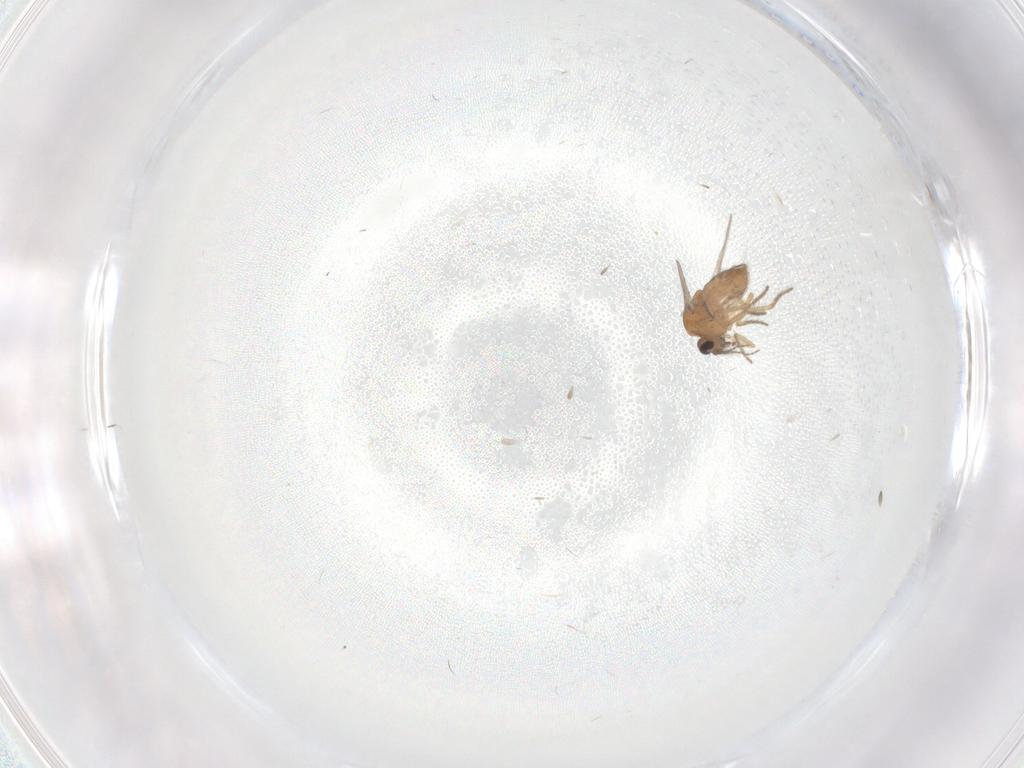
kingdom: Animalia
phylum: Arthropoda
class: Insecta
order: Diptera
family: Ceratopogonidae
